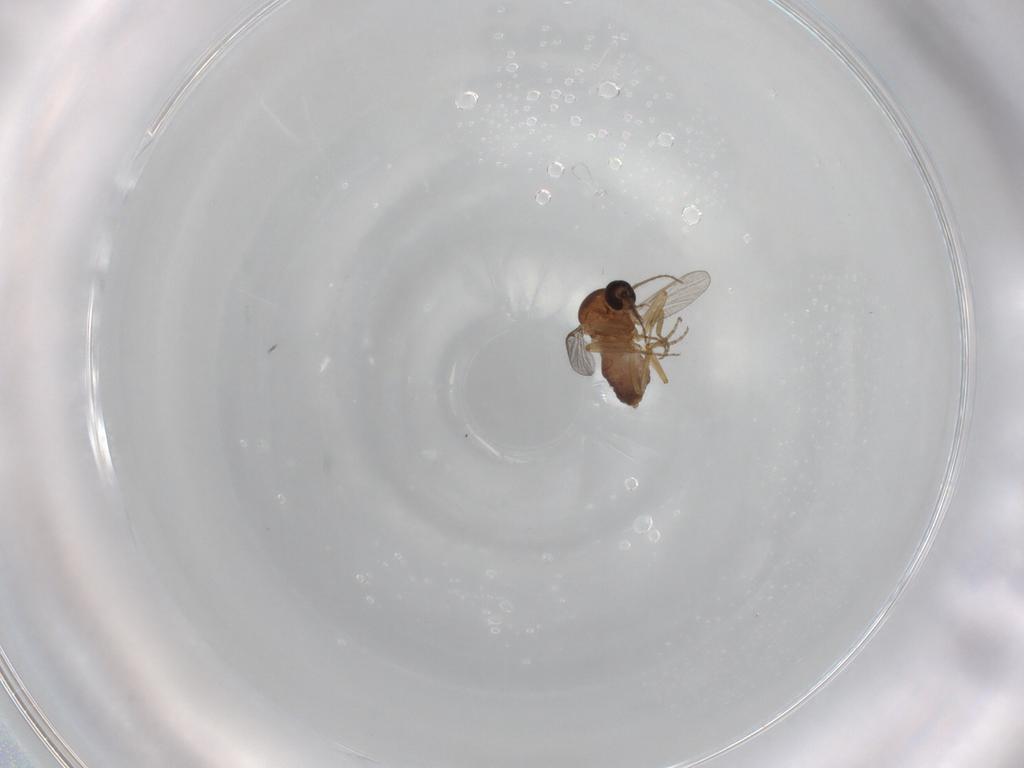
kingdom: Animalia
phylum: Arthropoda
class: Insecta
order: Diptera
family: Ceratopogonidae
